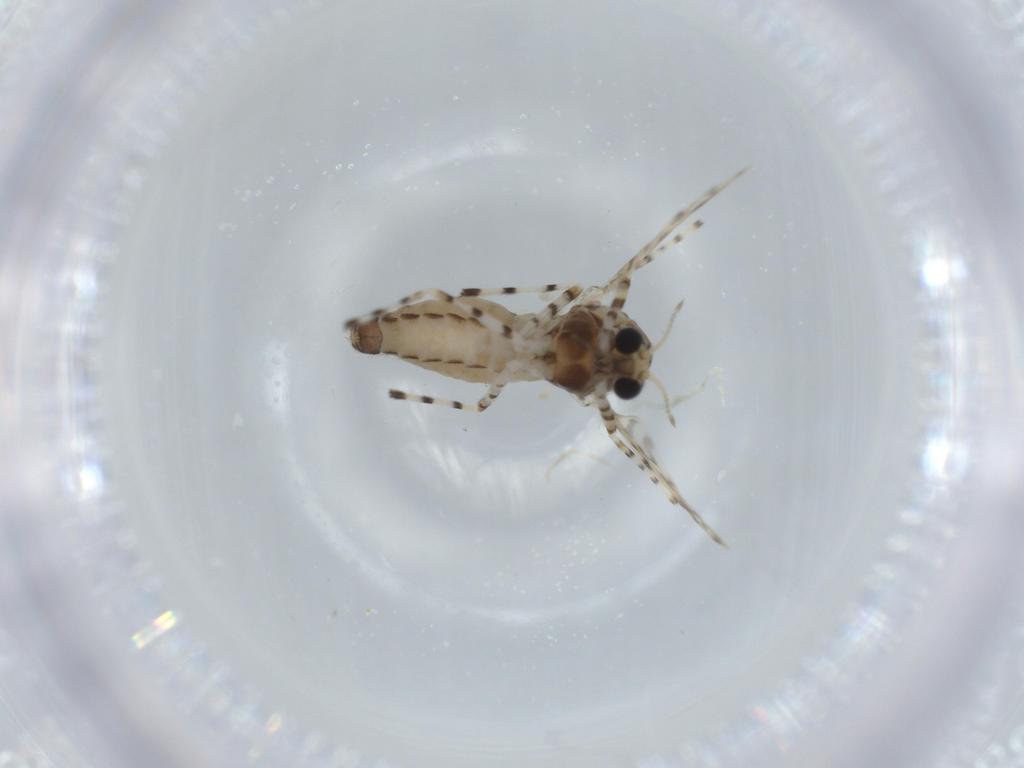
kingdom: Animalia
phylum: Arthropoda
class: Insecta
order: Diptera
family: Chironomidae
